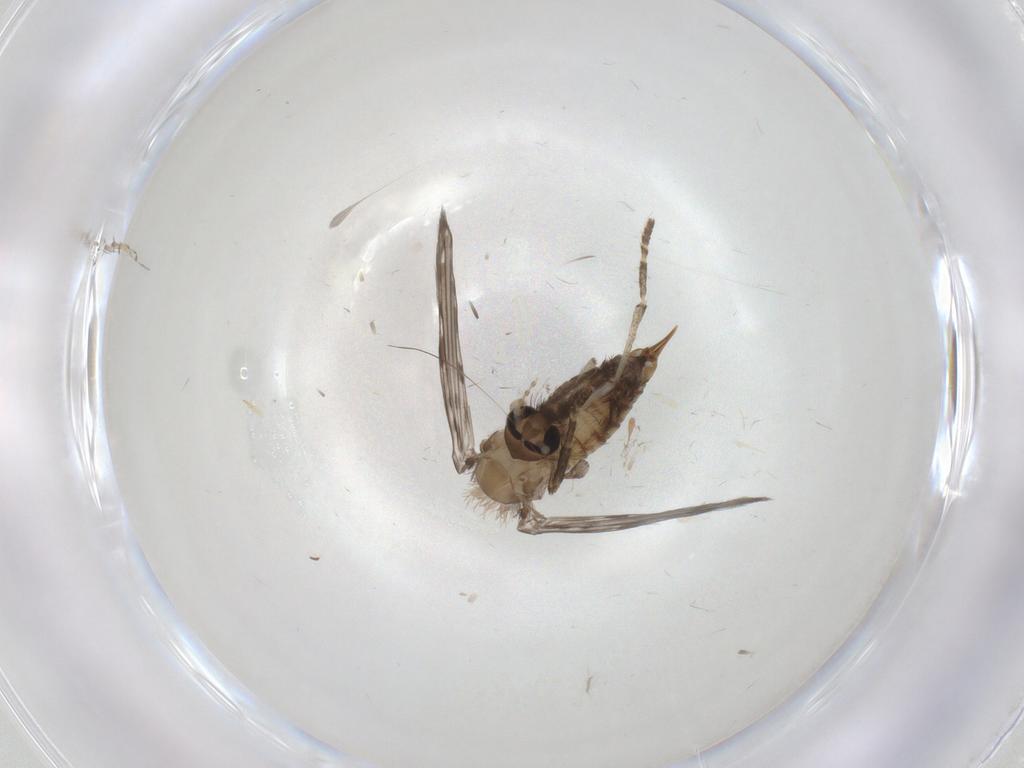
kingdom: Animalia
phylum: Arthropoda
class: Insecta
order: Diptera
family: Psychodidae
